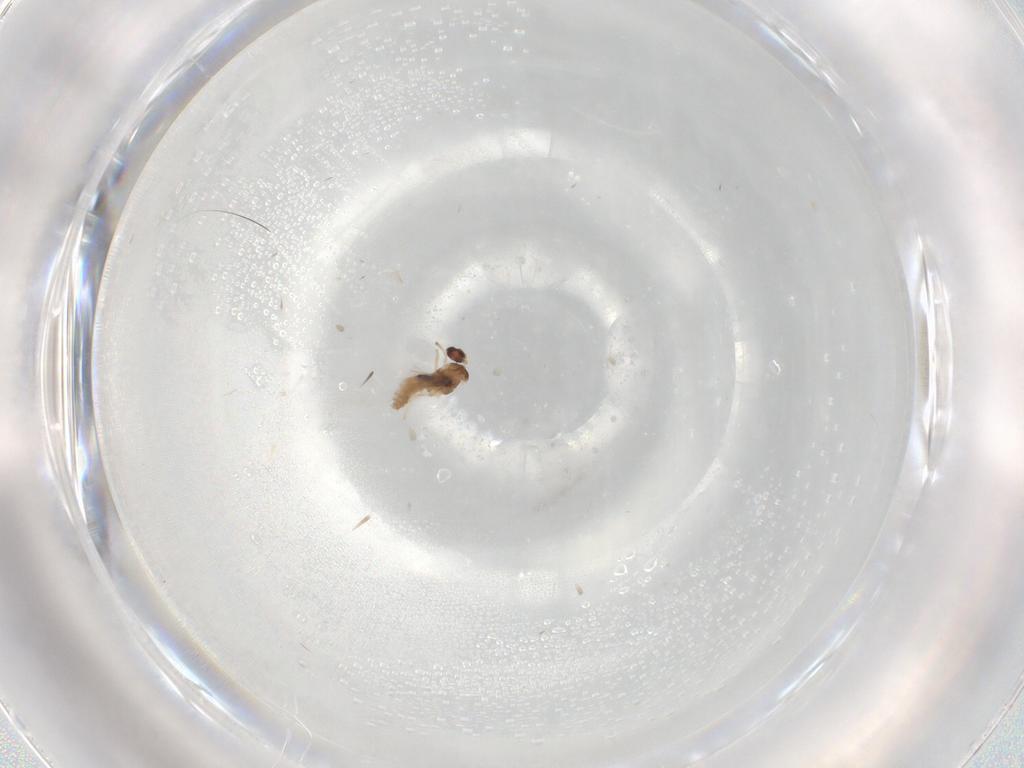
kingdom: Animalia
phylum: Arthropoda
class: Insecta
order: Diptera
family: Cecidomyiidae
